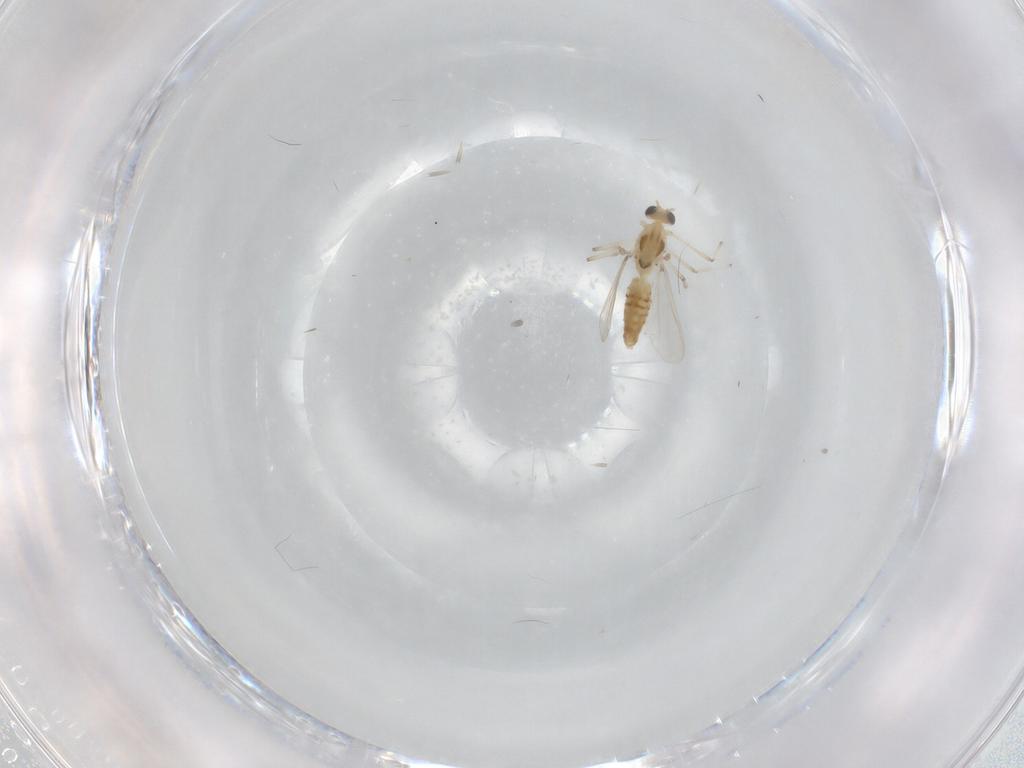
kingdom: Animalia
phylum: Arthropoda
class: Insecta
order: Diptera
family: Chironomidae
